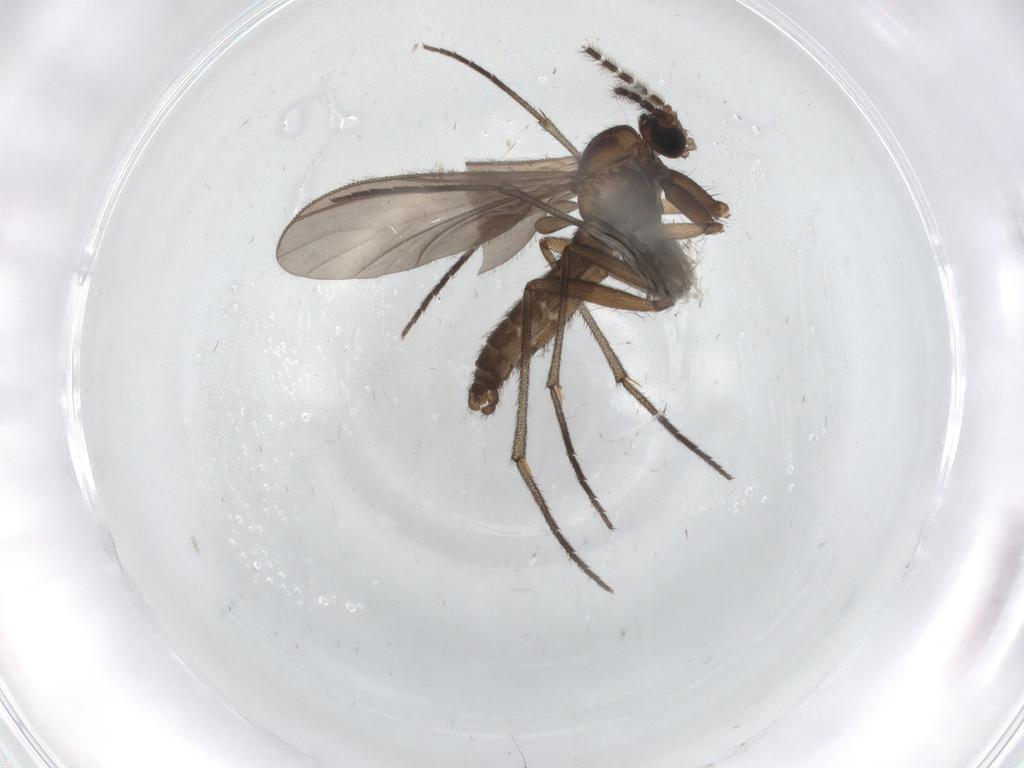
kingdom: Animalia
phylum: Arthropoda
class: Insecta
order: Diptera
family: Sciaridae
